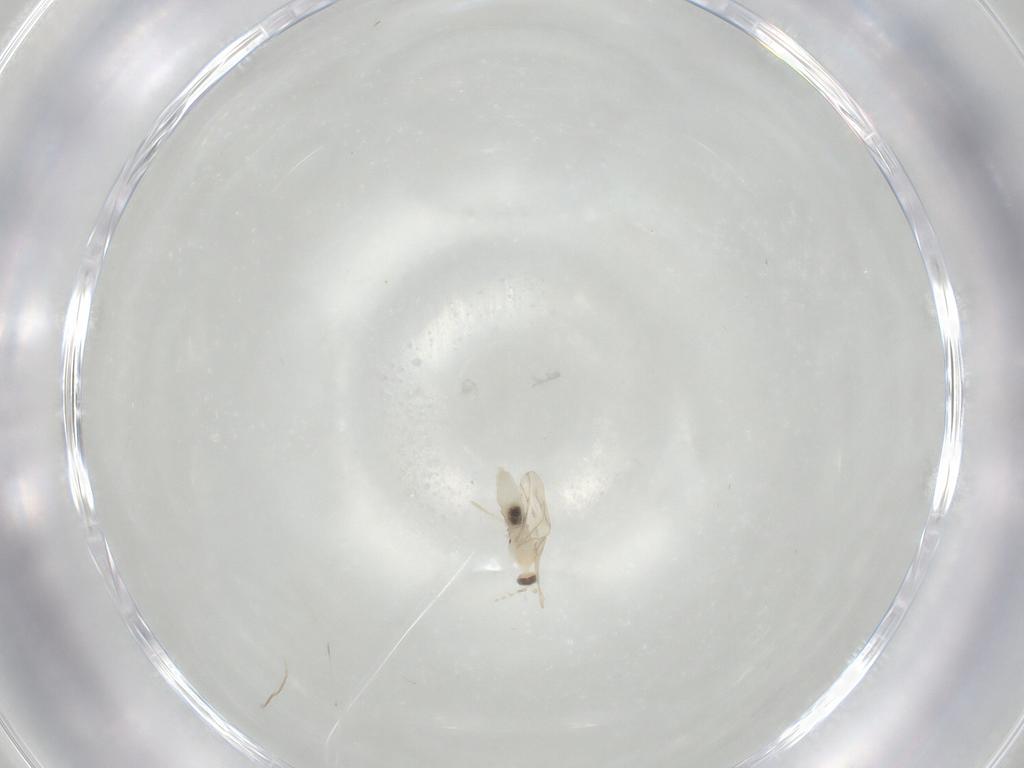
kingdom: Animalia
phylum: Arthropoda
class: Insecta
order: Diptera
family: Cecidomyiidae
